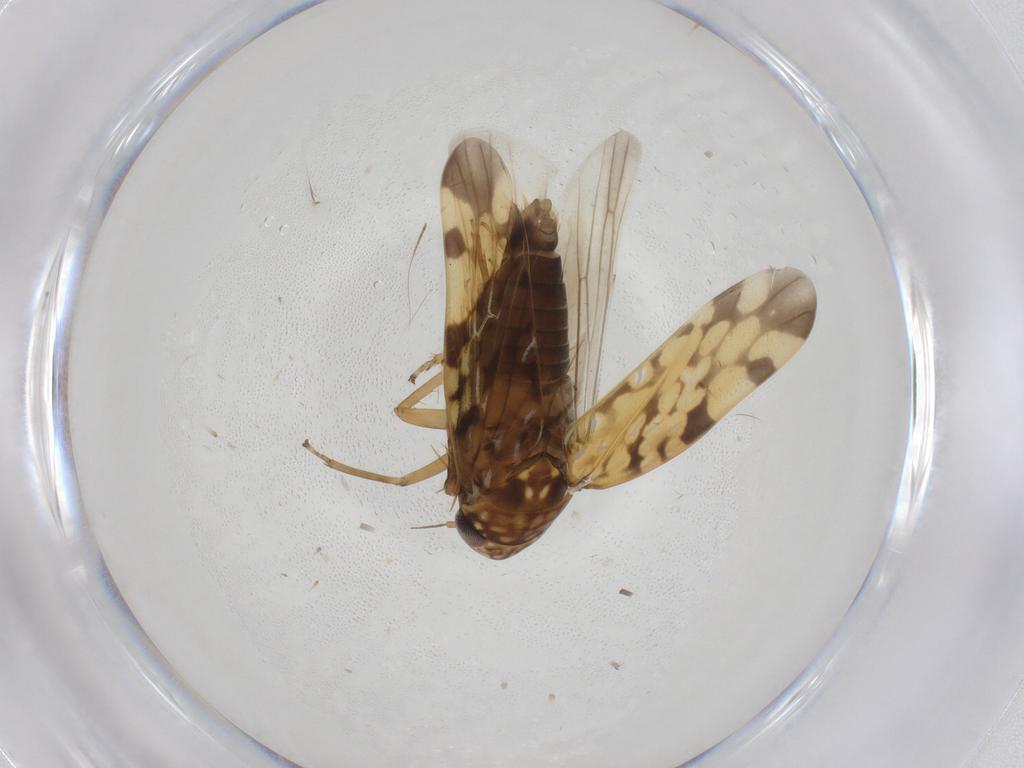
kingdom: Animalia
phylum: Arthropoda
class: Insecta
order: Hemiptera
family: Cicadellidae
